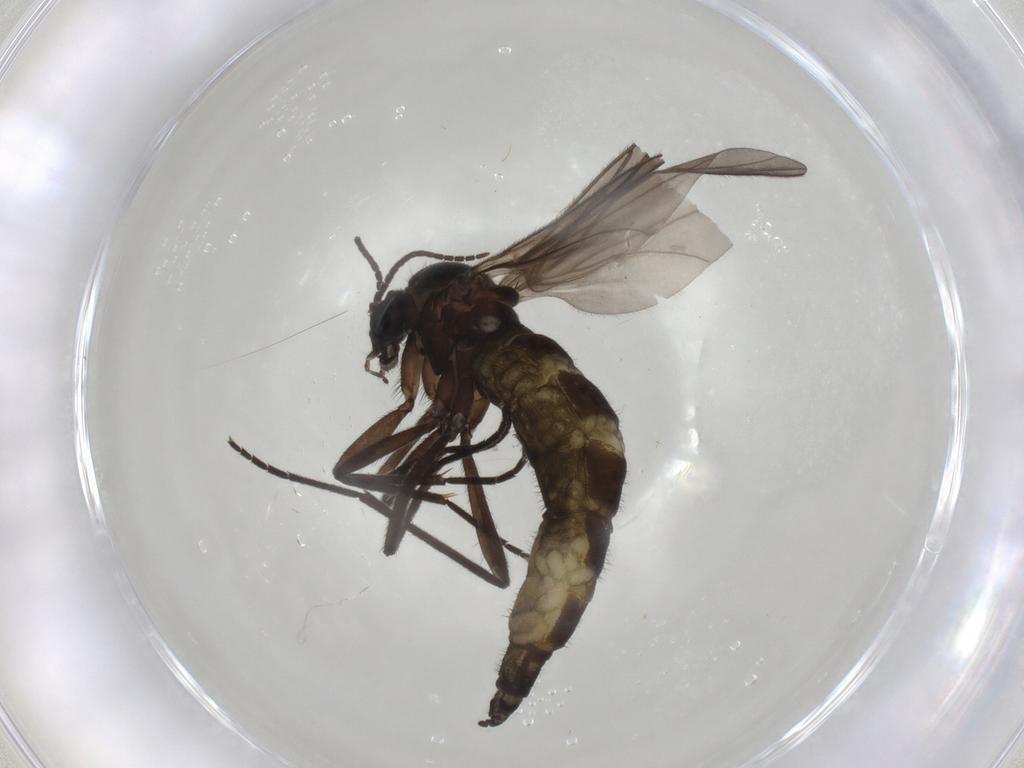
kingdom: Animalia
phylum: Arthropoda
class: Insecta
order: Diptera
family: Sciaridae
